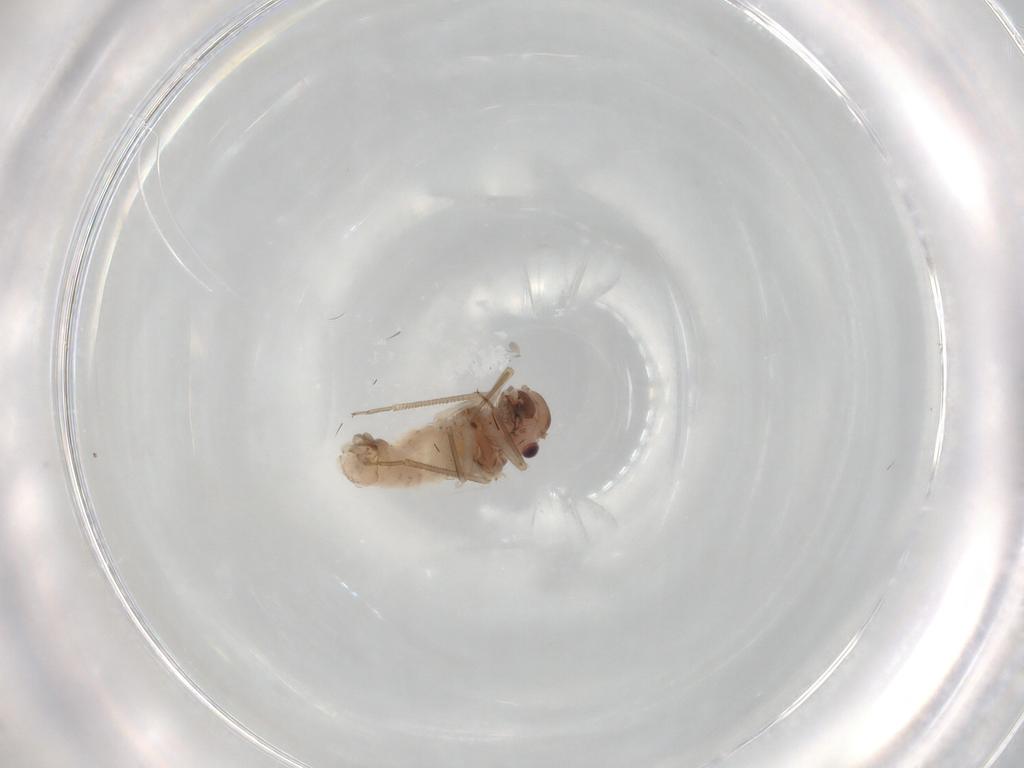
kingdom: Animalia
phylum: Arthropoda
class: Insecta
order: Psocodea
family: Peripsocidae
